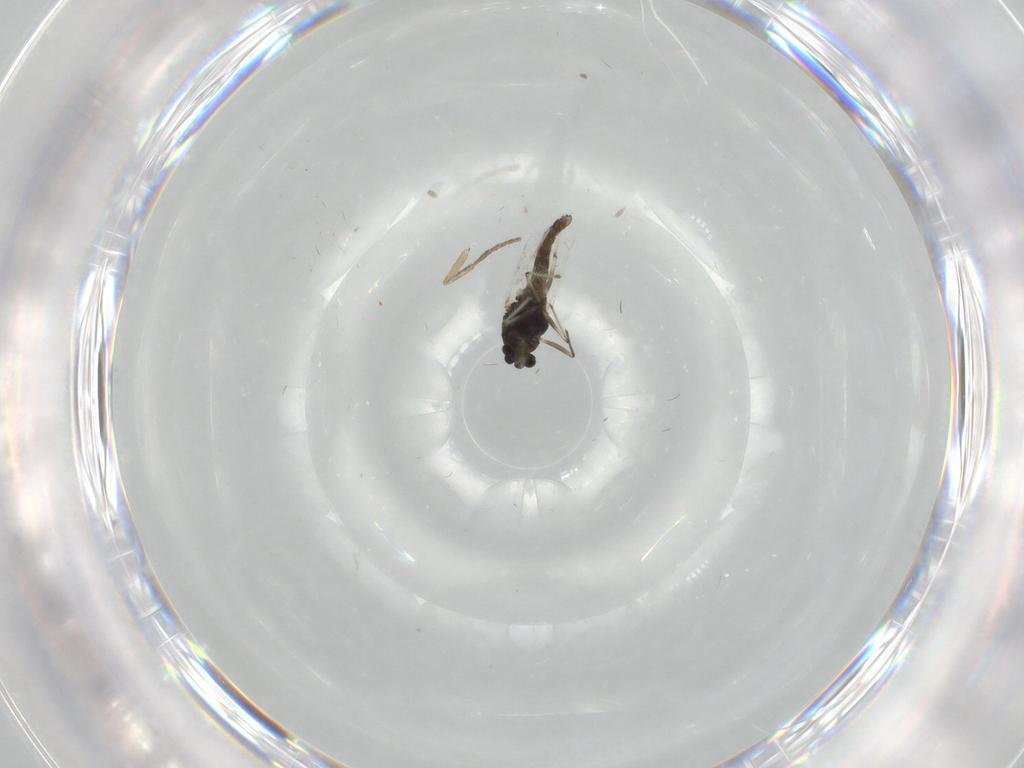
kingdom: Animalia
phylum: Arthropoda
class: Insecta
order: Diptera
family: Chironomidae
